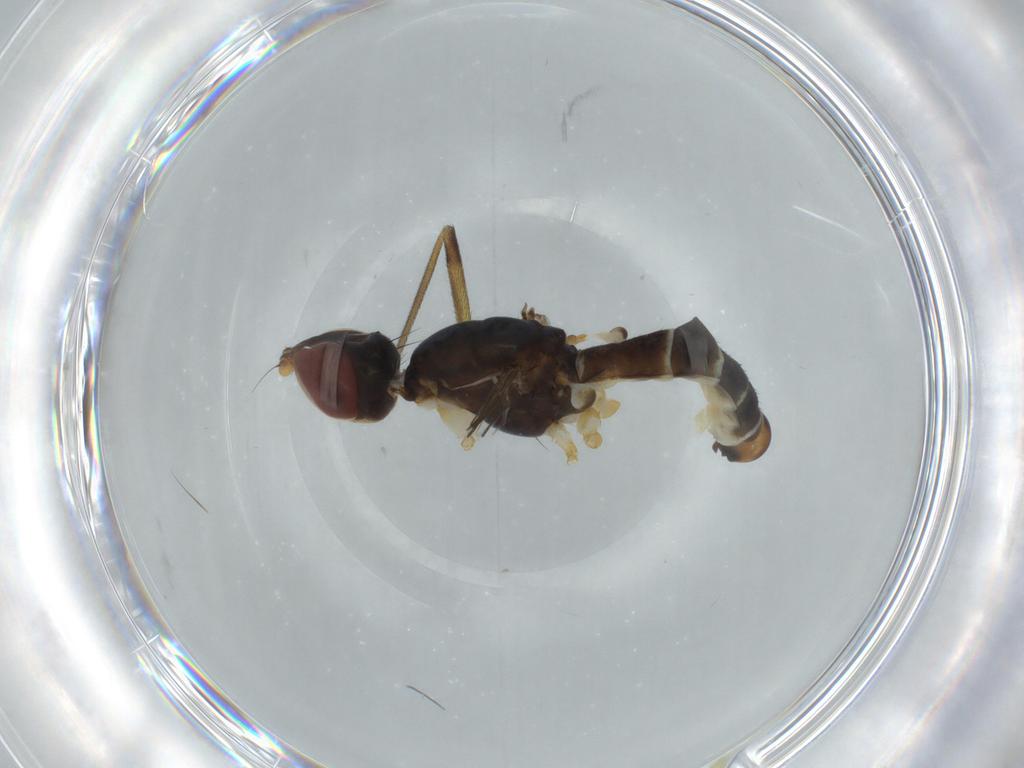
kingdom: Animalia
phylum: Arthropoda
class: Insecta
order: Diptera
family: Micropezidae
